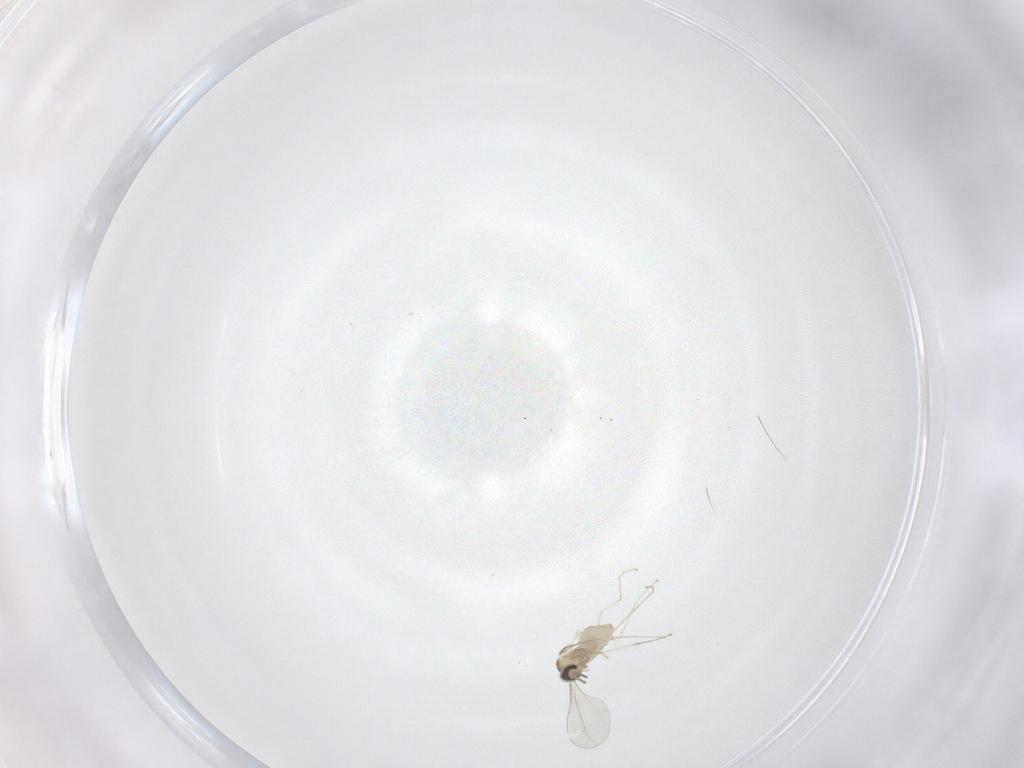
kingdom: Animalia
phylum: Arthropoda
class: Insecta
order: Diptera
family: Cecidomyiidae
